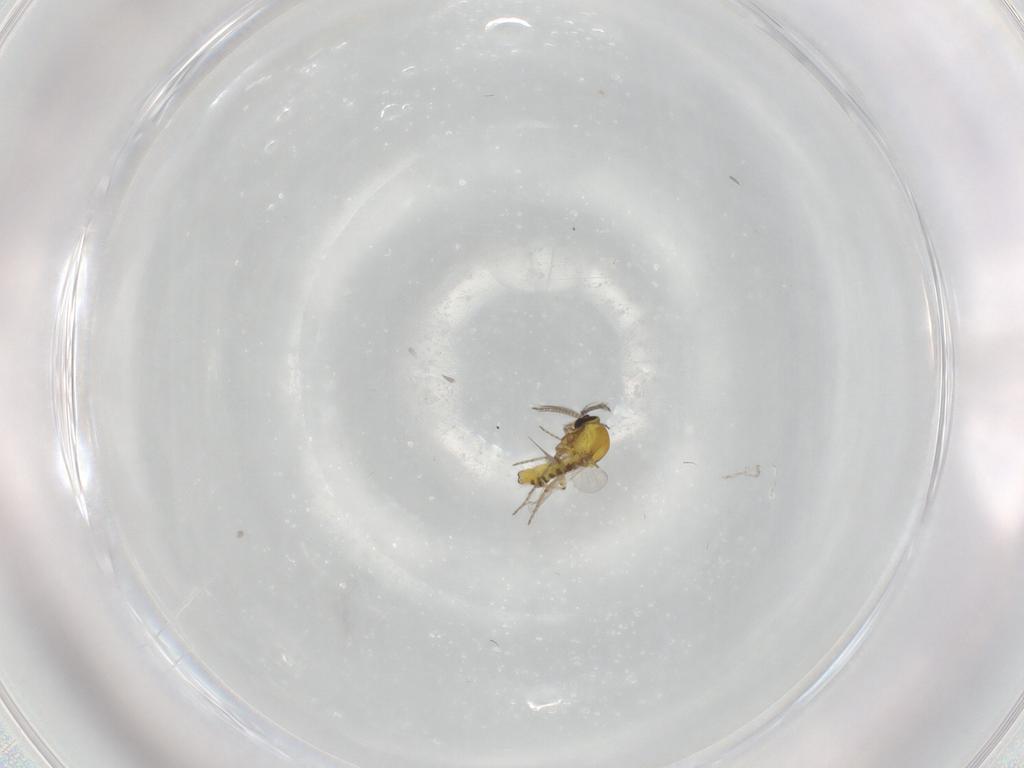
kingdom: Animalia
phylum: Arthropoda
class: Insecta
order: Diptera
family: Ceratopogonidae
